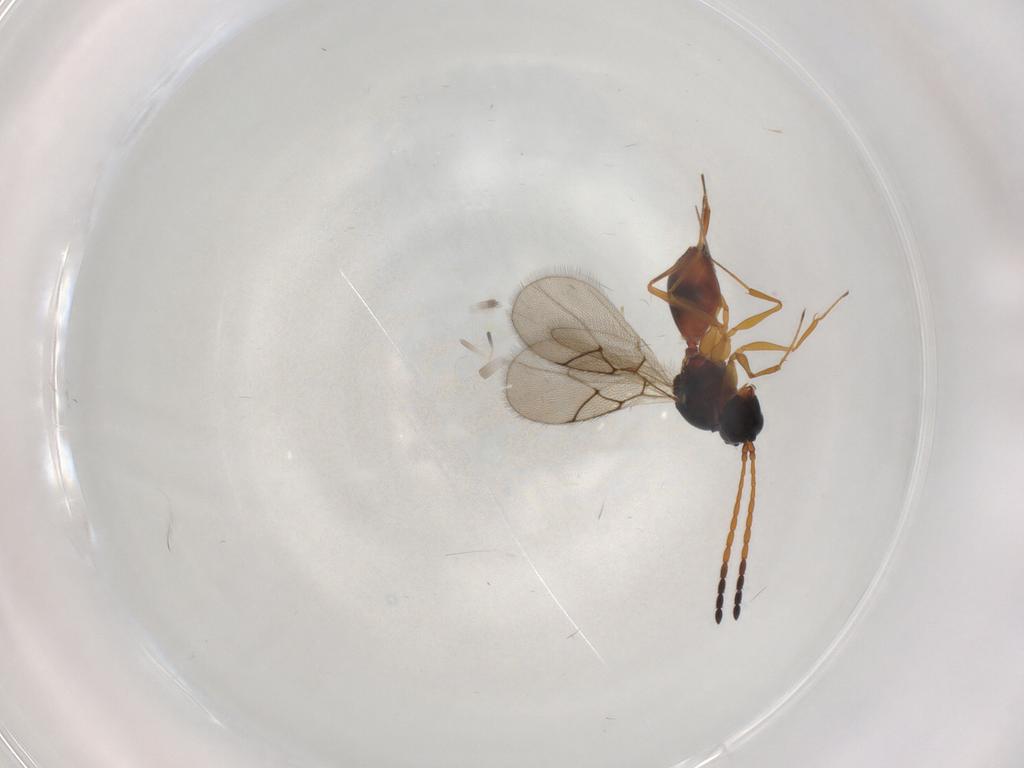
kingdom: Animalia
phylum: Arthropoda
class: Insecta
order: Hymenoptera
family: Figitidae
